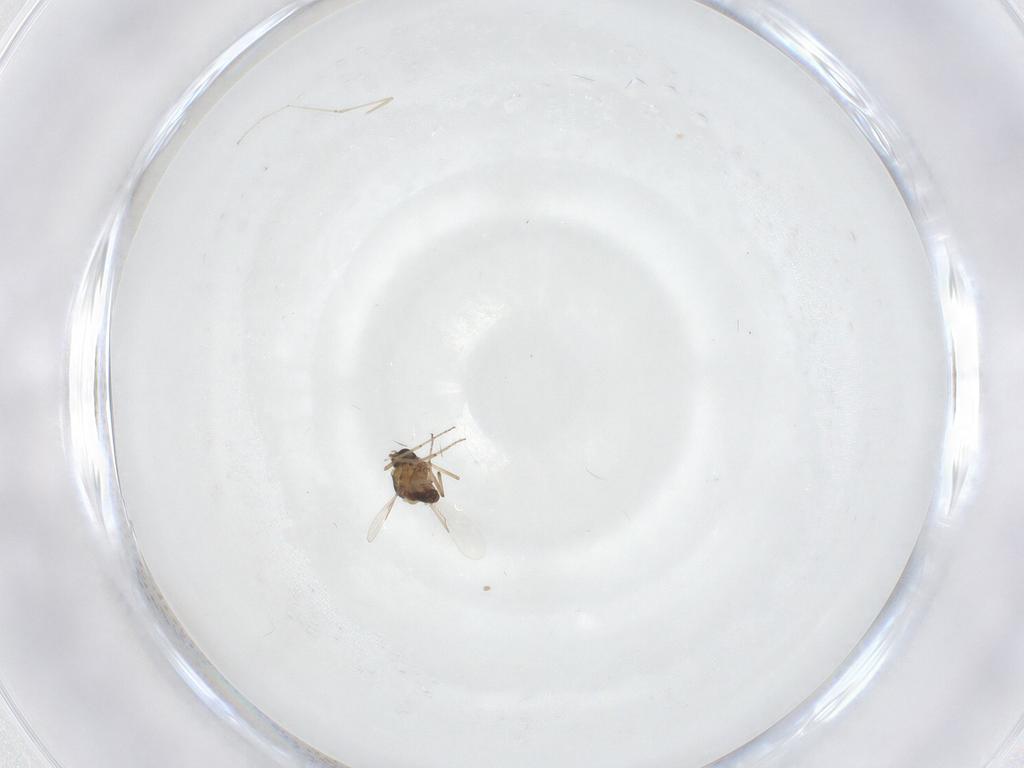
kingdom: Animalia
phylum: Arthropoda
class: Insecta
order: Diptera
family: Ceratopogonidae
